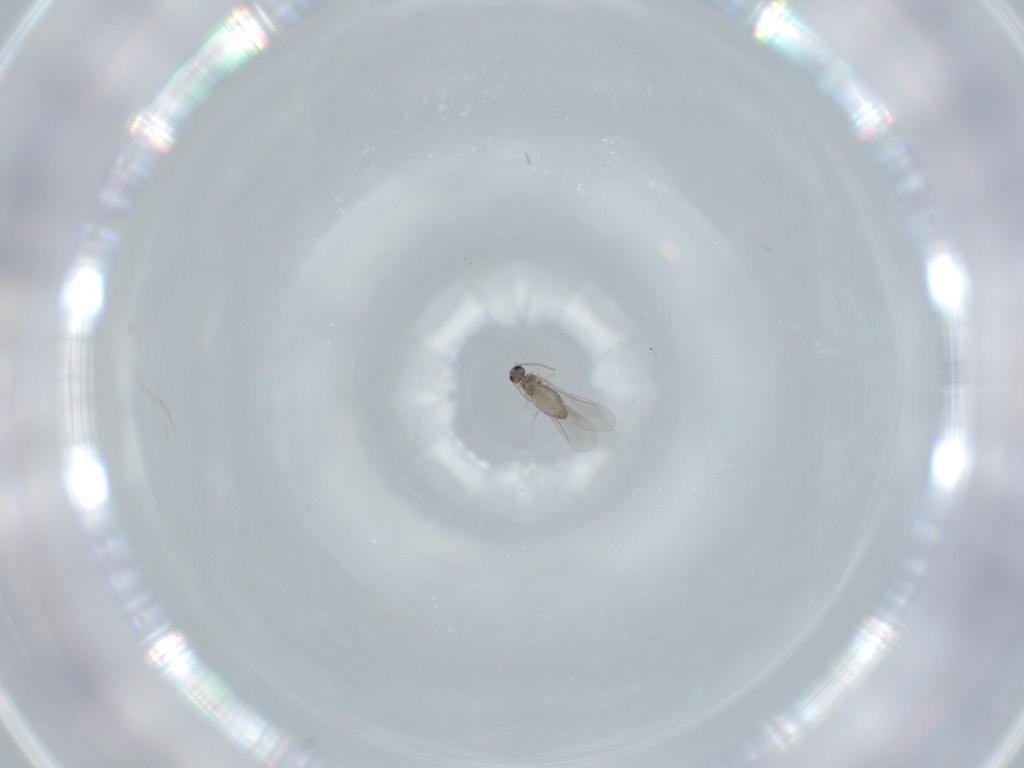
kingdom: Animalia
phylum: Arthropoda
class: Insecta
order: Diptera
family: Cecidomyiidae
